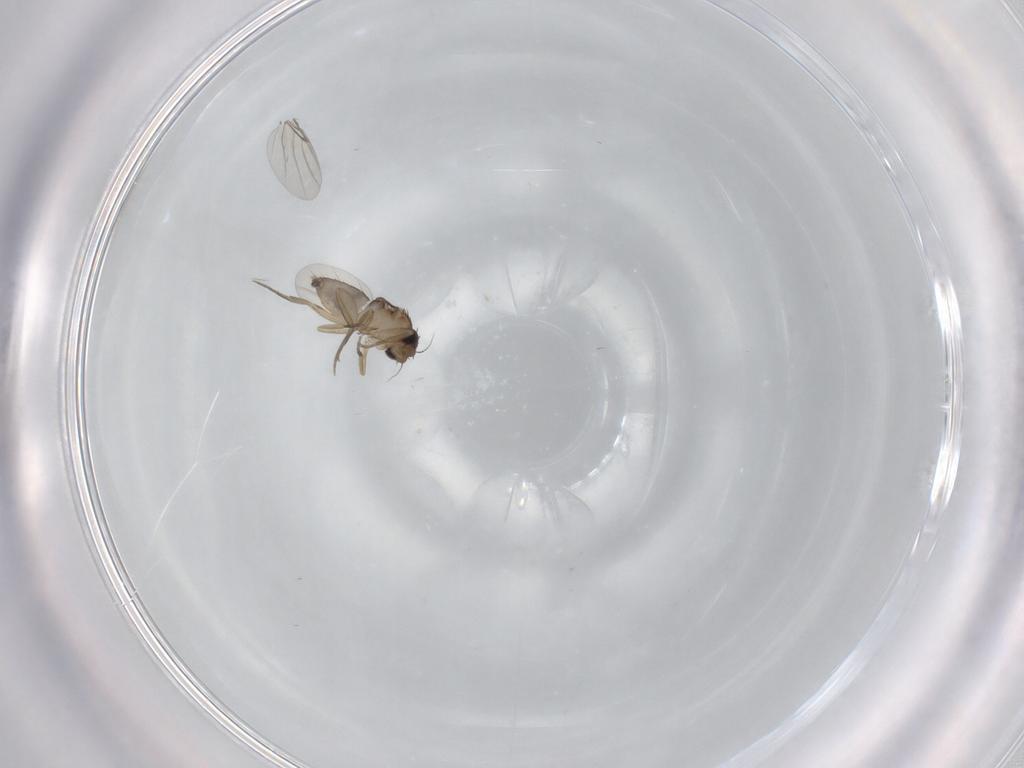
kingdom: Animalia
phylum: Arthropoda
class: Insecta
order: Diptera
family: Phoridae
